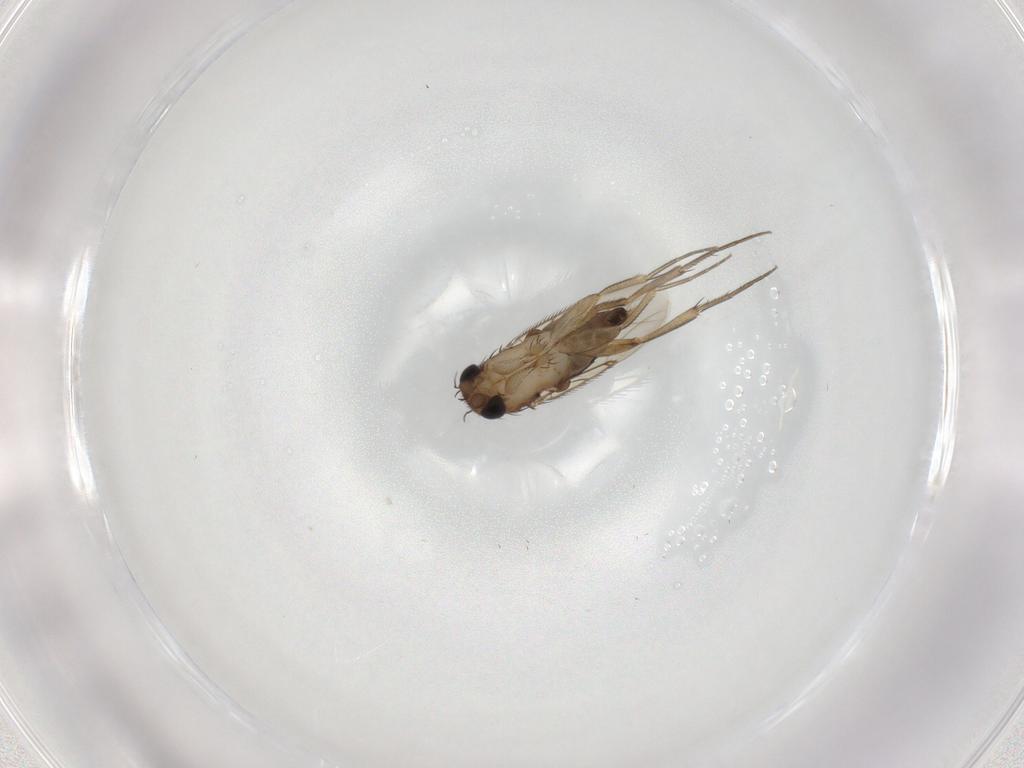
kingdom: Animalia
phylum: Arthropoda
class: Insecta
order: Diptera
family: Phoridae
